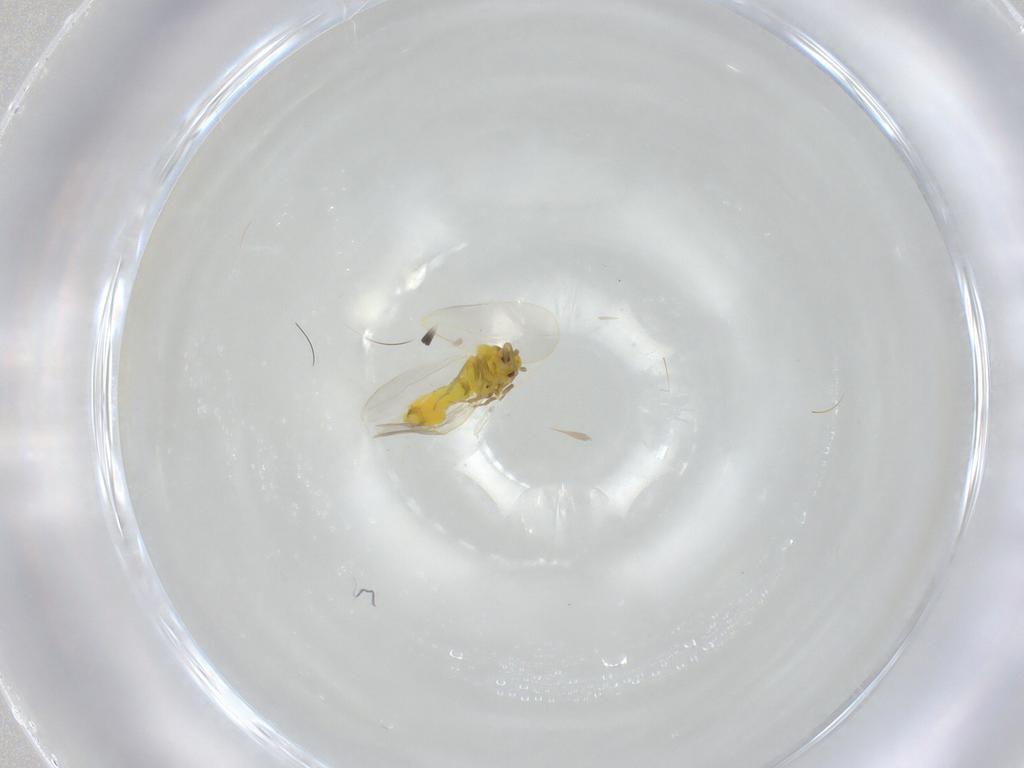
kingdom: Animalia
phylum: Arthropoda
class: Insecta
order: Hemiptera
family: Aleyrodidae
